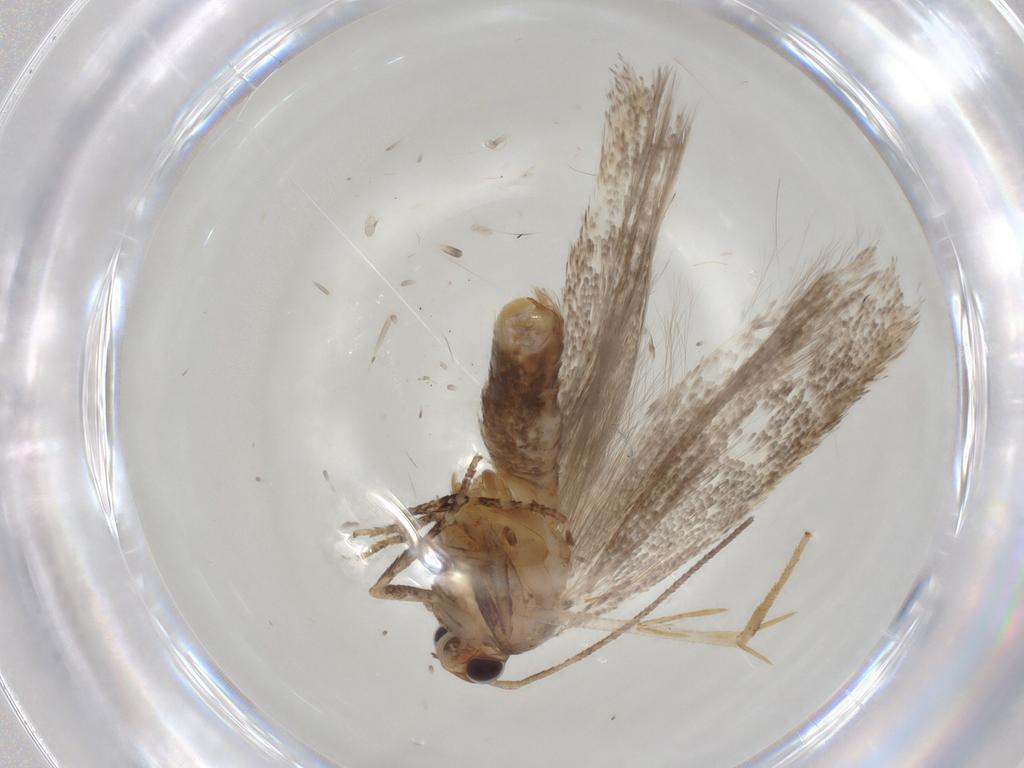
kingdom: Animalia
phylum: Arthropoda
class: Insecta
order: Lepidoptera
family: Gelechiidae
